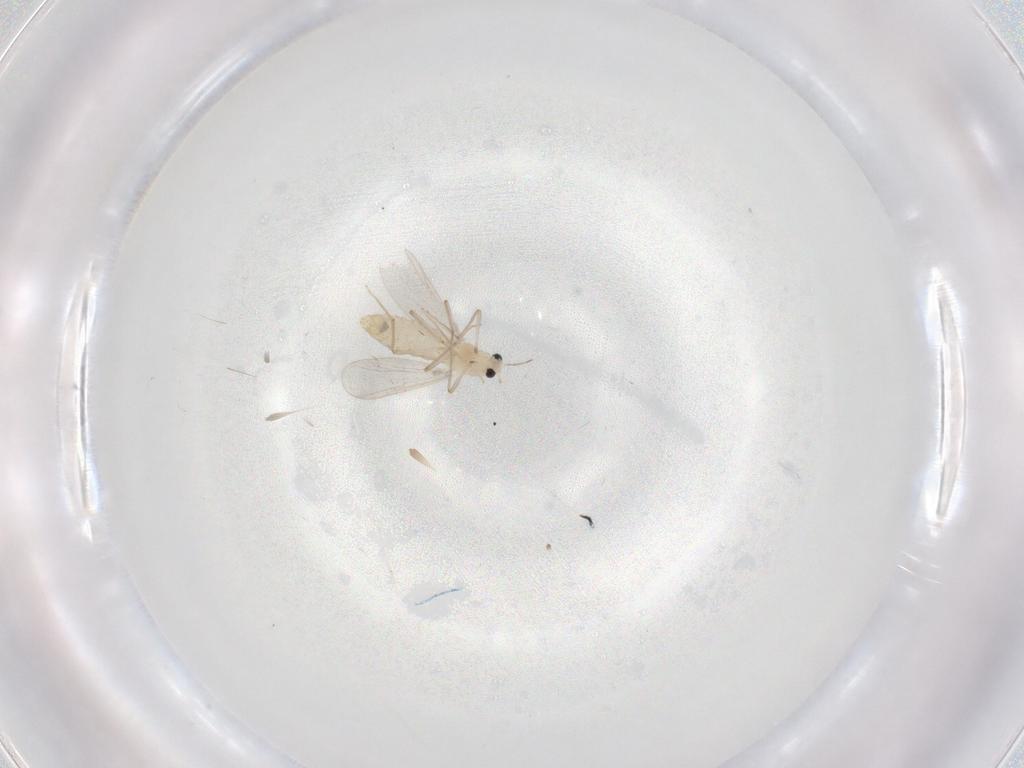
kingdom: Animalia
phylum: Arthropoda
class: Insecta
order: Diptera
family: Chironomidae
